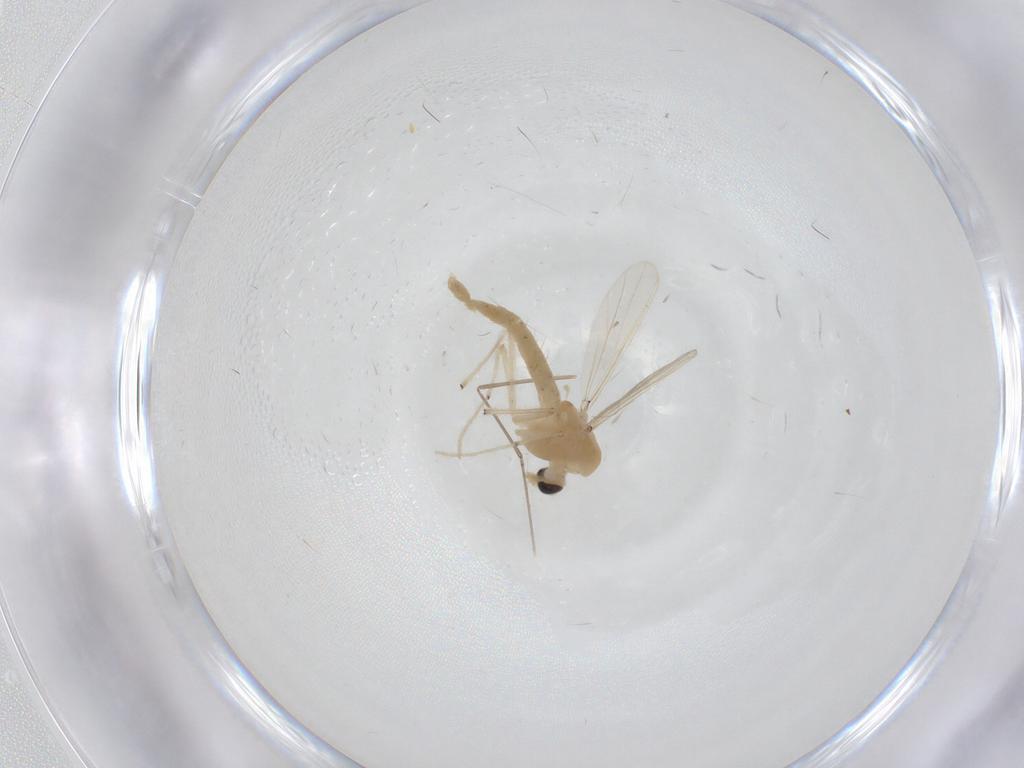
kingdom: Animalia
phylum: Arthropoda
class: Insecta
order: Diptera
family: Chironomidae
